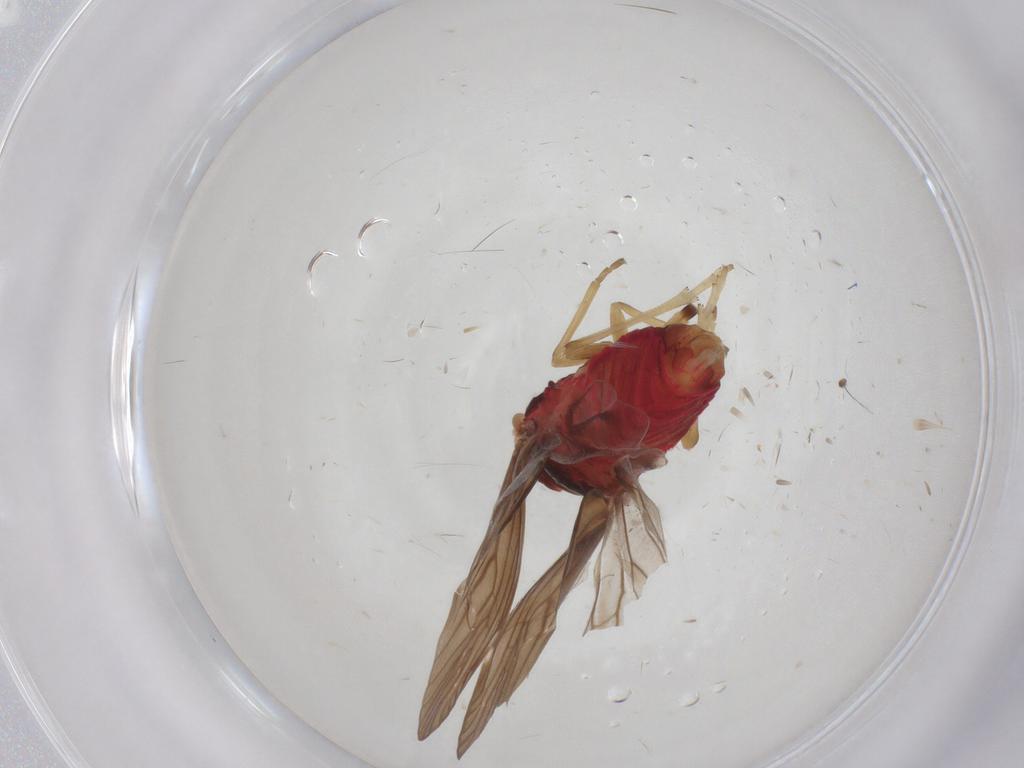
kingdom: Animalia
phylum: Arthropoda
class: Insecta
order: Hemiptera
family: Derbidae
